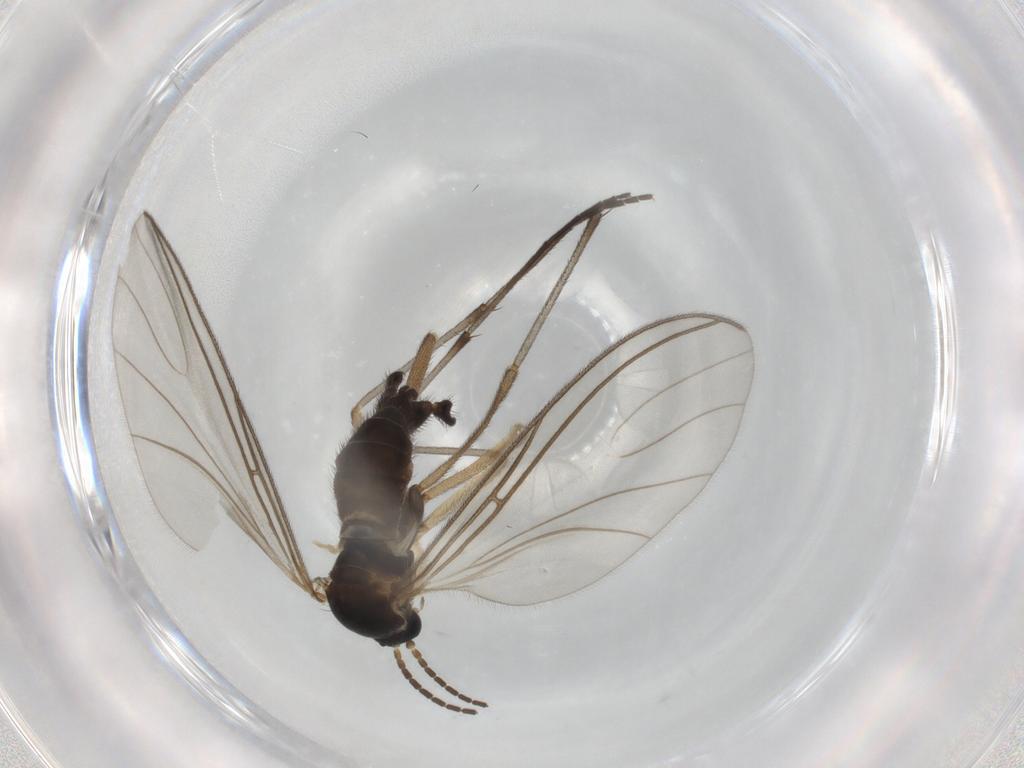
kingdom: Animalia
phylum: Arthropoda
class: Insecta
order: Diptera
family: Sciaridae
